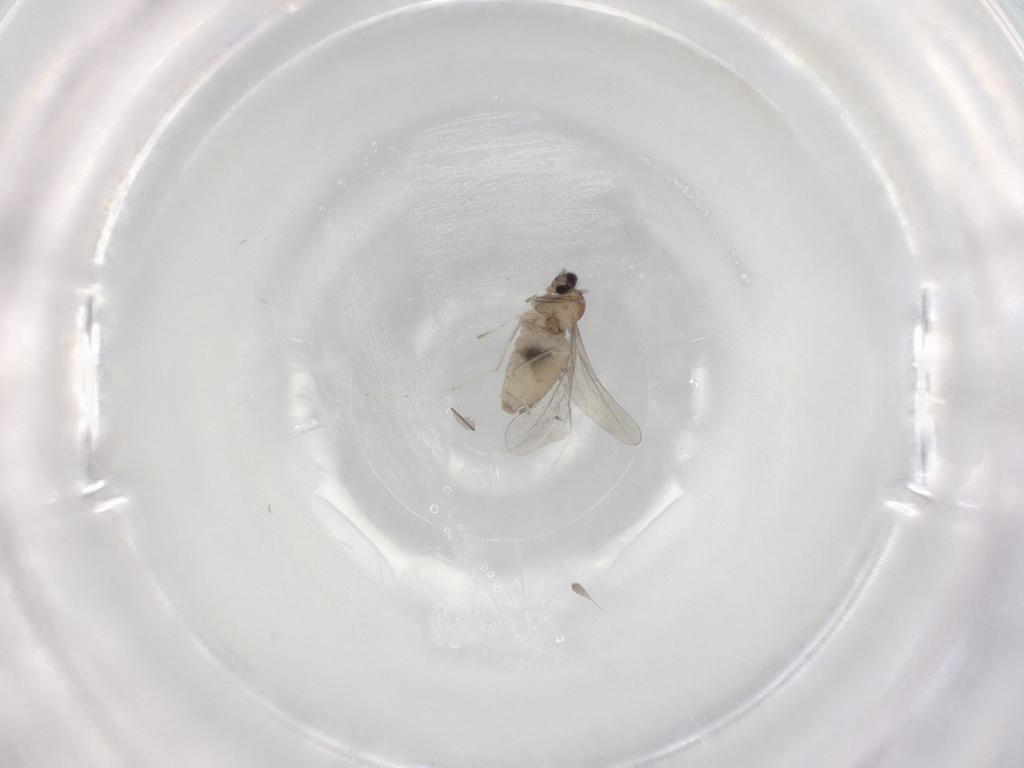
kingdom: Animalia
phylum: Arthropoda
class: Insecta
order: Diptera
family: Cecidomyiidae
